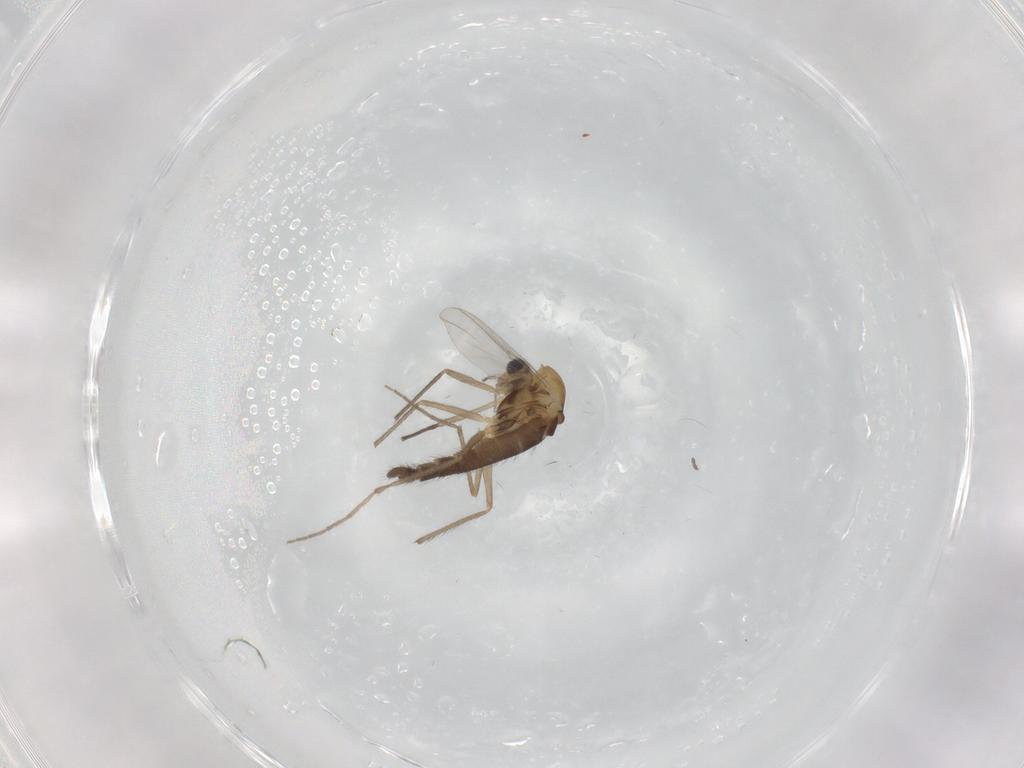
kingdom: Animalia
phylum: Arthropoda
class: Insecta
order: Diptera
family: Chironomidae
